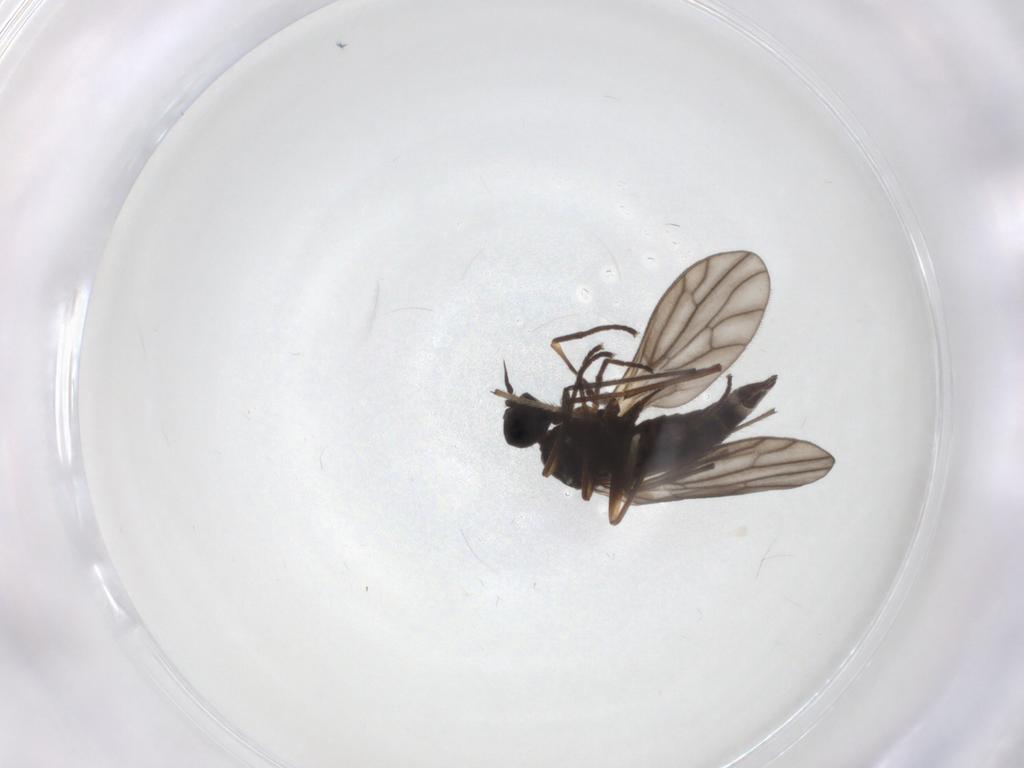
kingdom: Animalia
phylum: Arthropoda
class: Insecta
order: Diptera
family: Chironomidae
